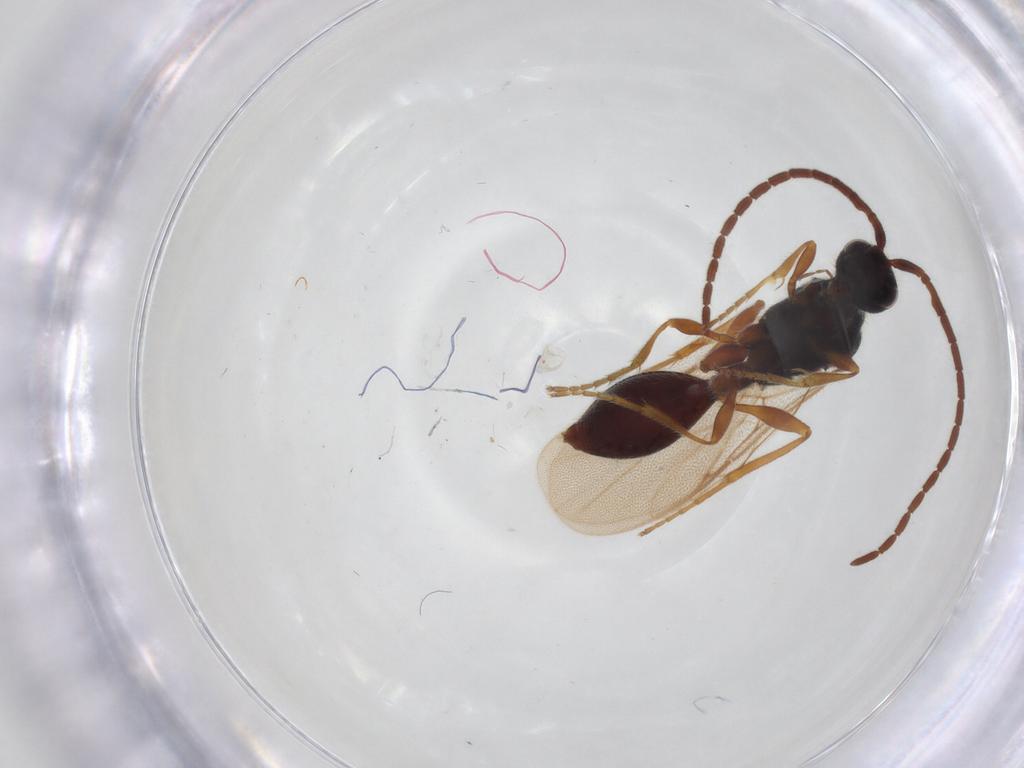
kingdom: Animalia
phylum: Arthropoda
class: Insecta
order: Hymenoptera
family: Diapriidae
